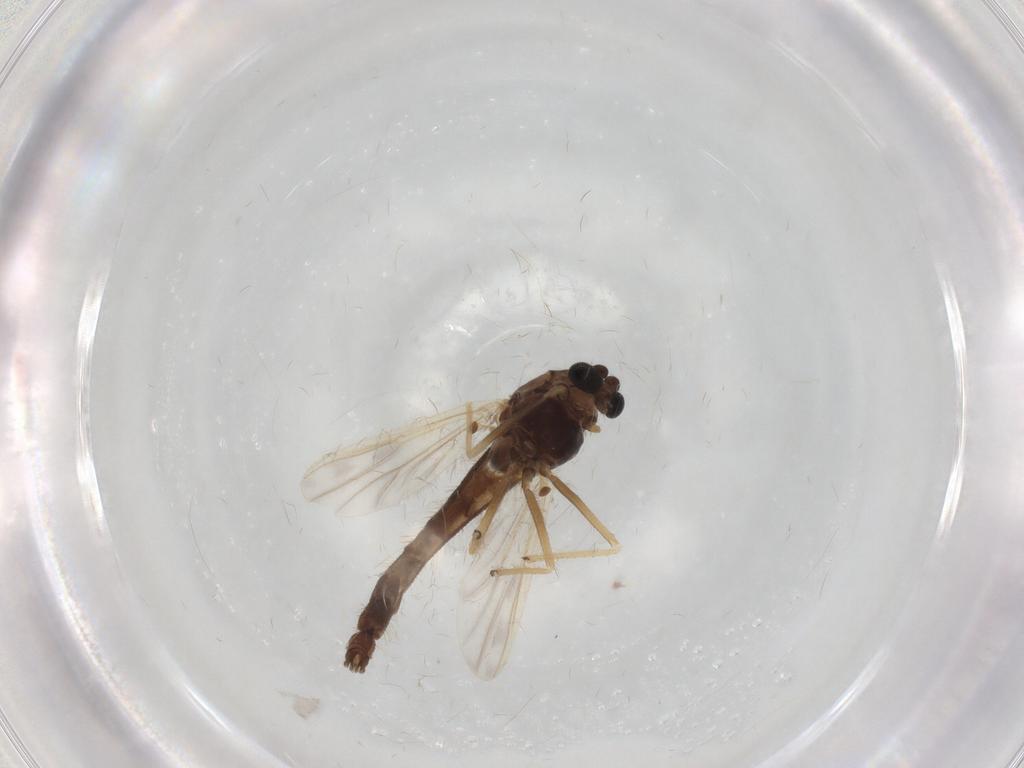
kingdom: Animalia
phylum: Arthropoda
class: Insecta
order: Diptera
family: Chironomidae
